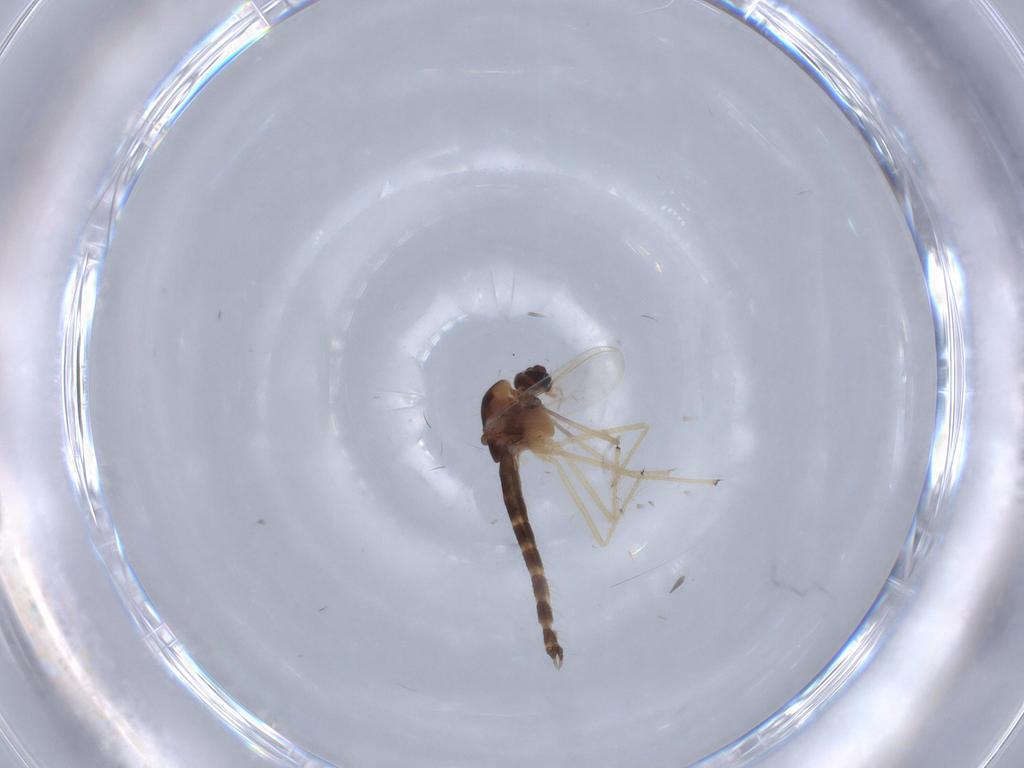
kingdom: Animalia
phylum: Arthropoda
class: Insecta
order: Diptera
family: Chironomidae
